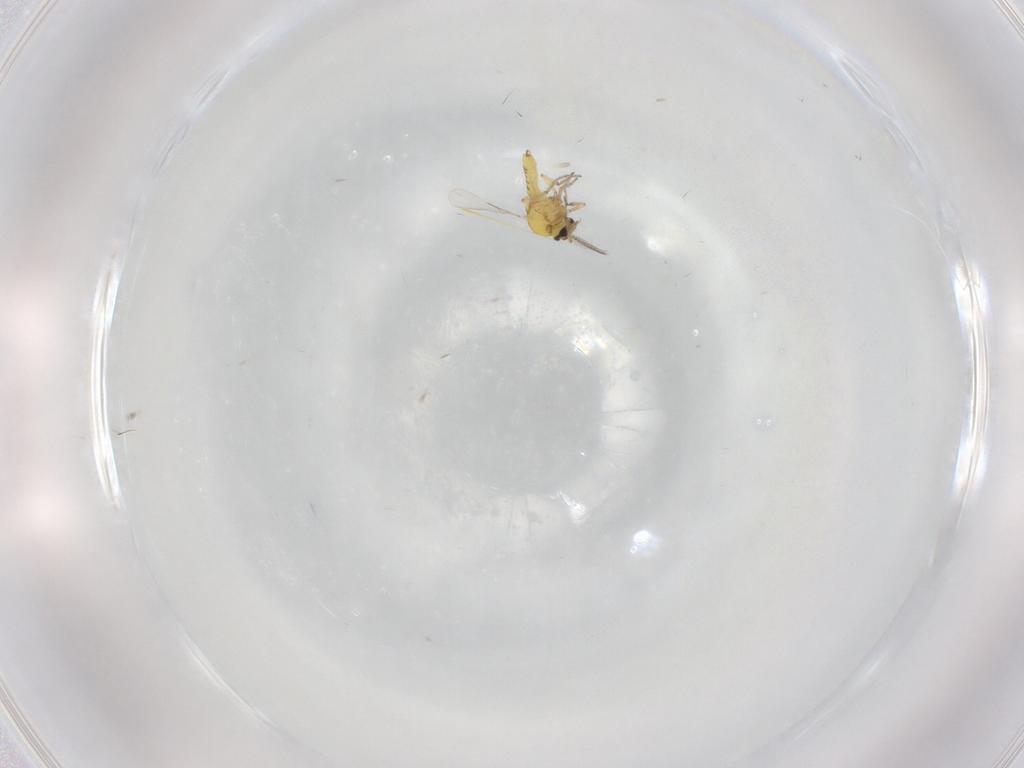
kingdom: Animalia
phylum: Arthropoda
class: Insecta
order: Diptera
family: Ceratopogonidae
